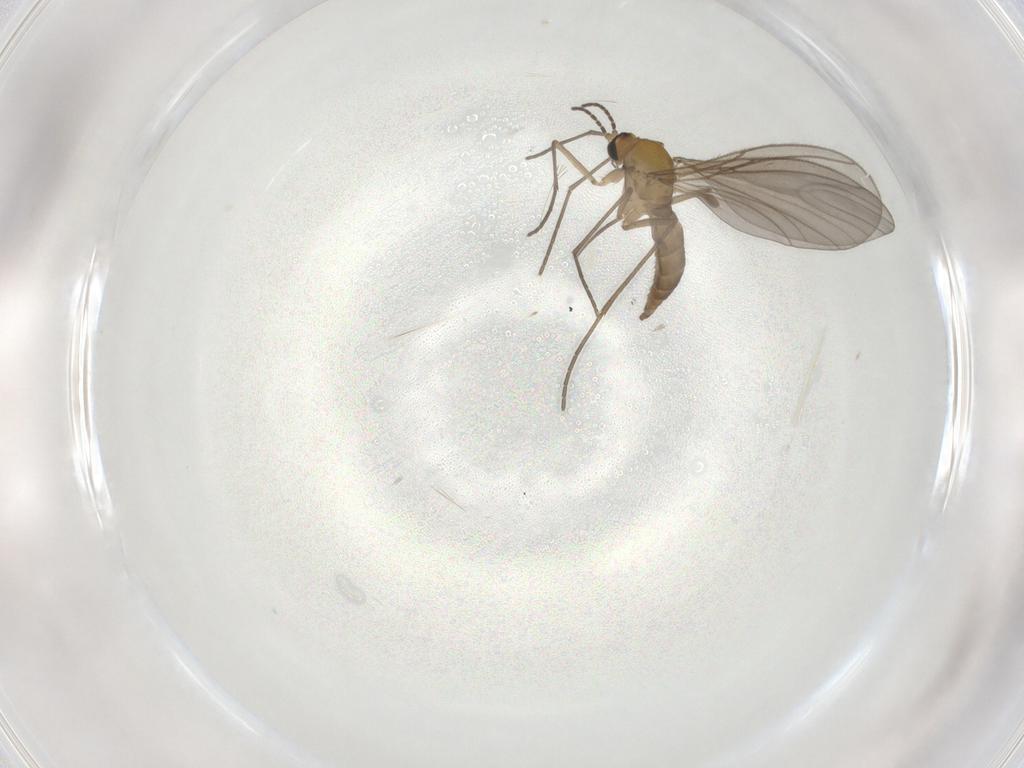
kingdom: Animalia
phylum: Arthropoda
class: Insecta
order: Diptera
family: Sciaridae
